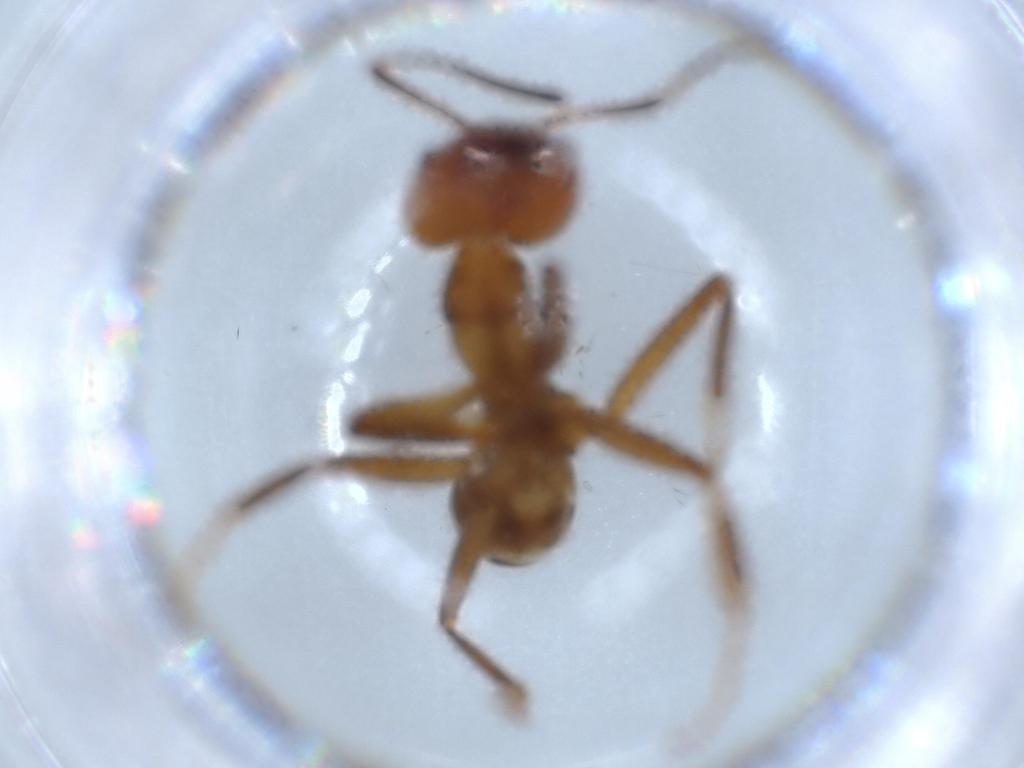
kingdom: Animalia
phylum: Arthropoda
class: Insecta
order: Hymenoptera
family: Formicidae
